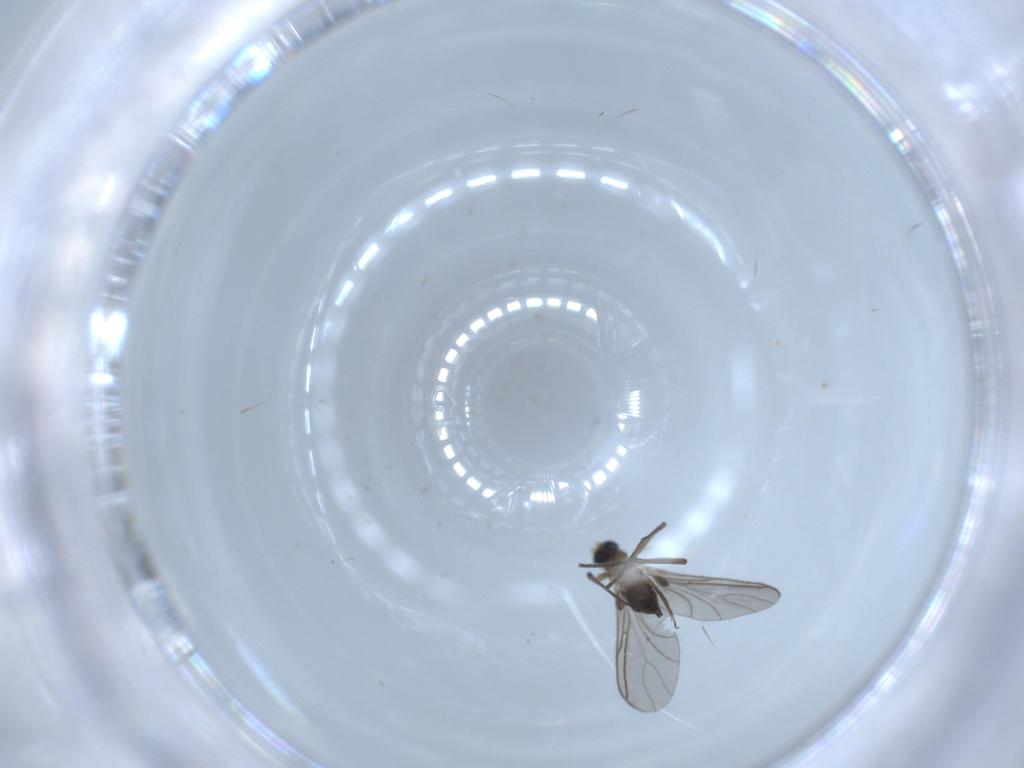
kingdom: Animalia
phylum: Arthropoda
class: Insecta
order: Diptera
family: Sciaridae
